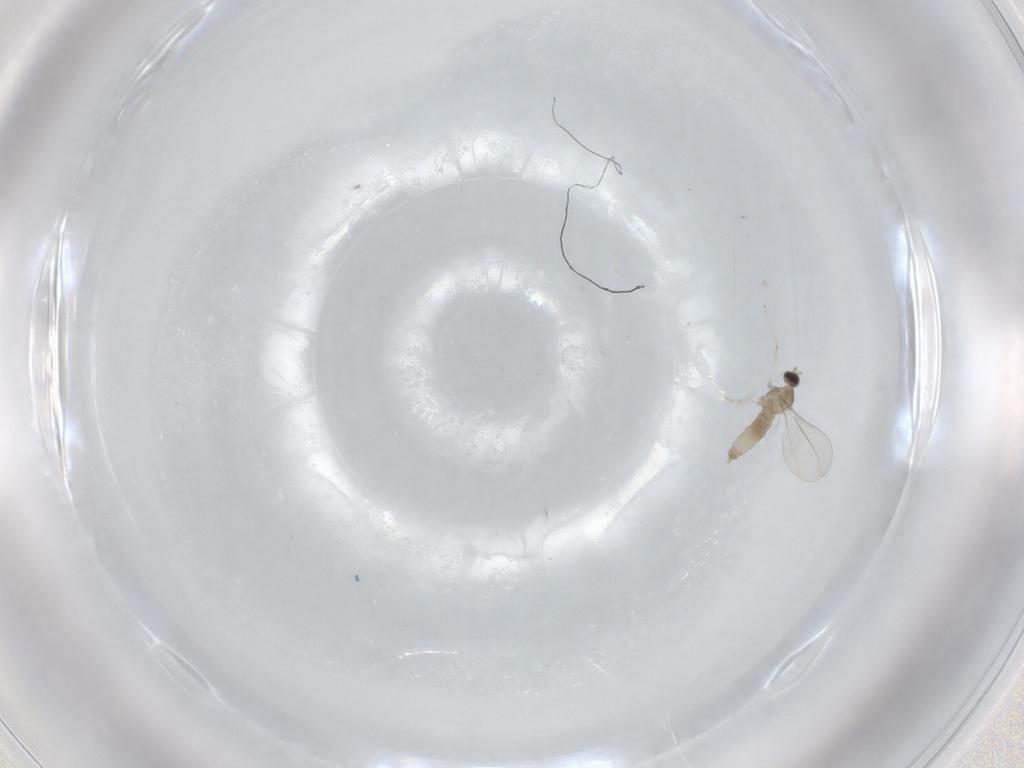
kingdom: Animalia
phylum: Arthropoda
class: Insecta
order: Diptera
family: Cecidomyiidae
